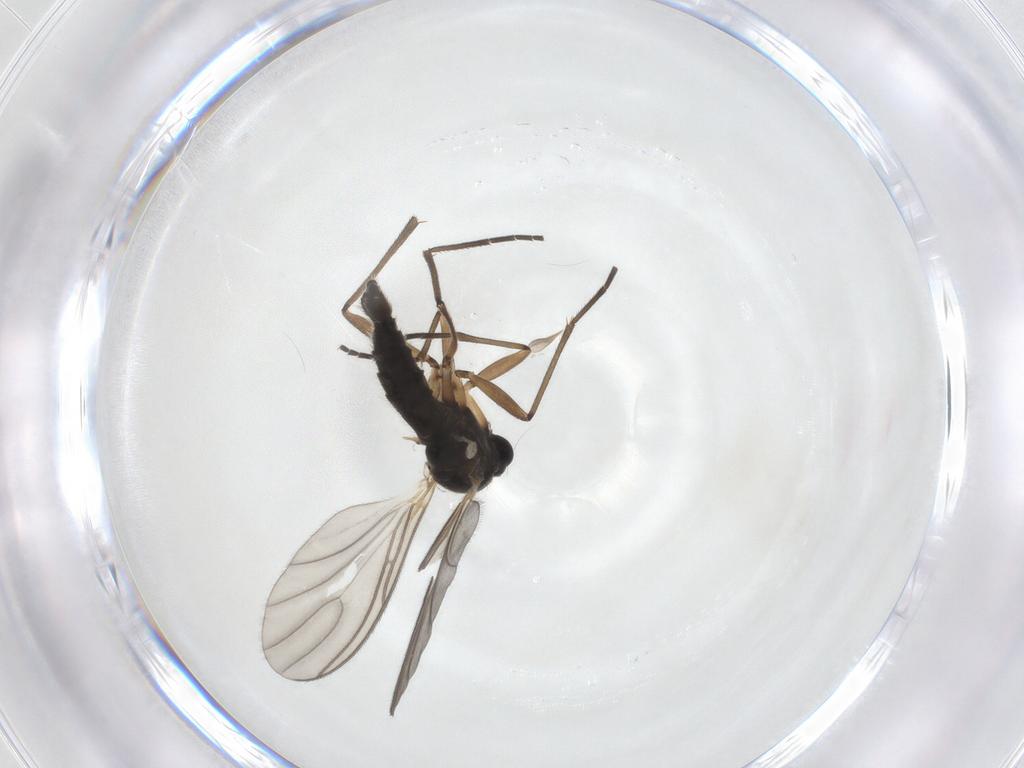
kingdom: Animalia
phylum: Arthropoda
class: Insecta
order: Diptera
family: Sciaridae
